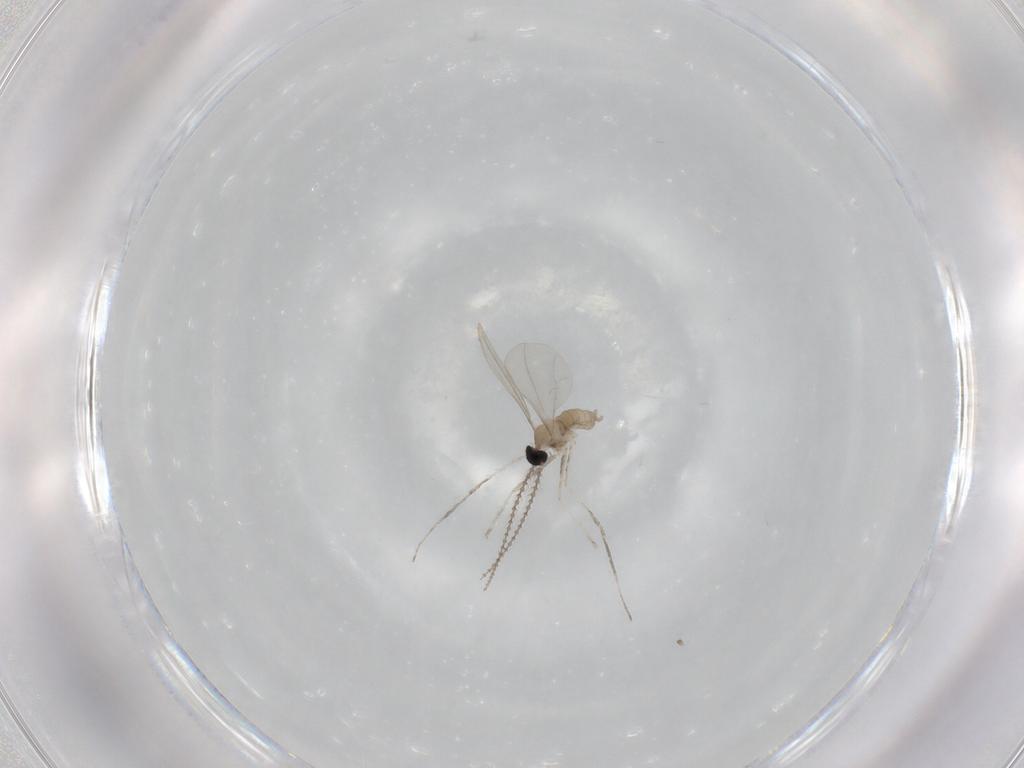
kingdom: Animalia
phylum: Arthropoda
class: Insecta
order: Diptera
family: Cecidomyiidae
